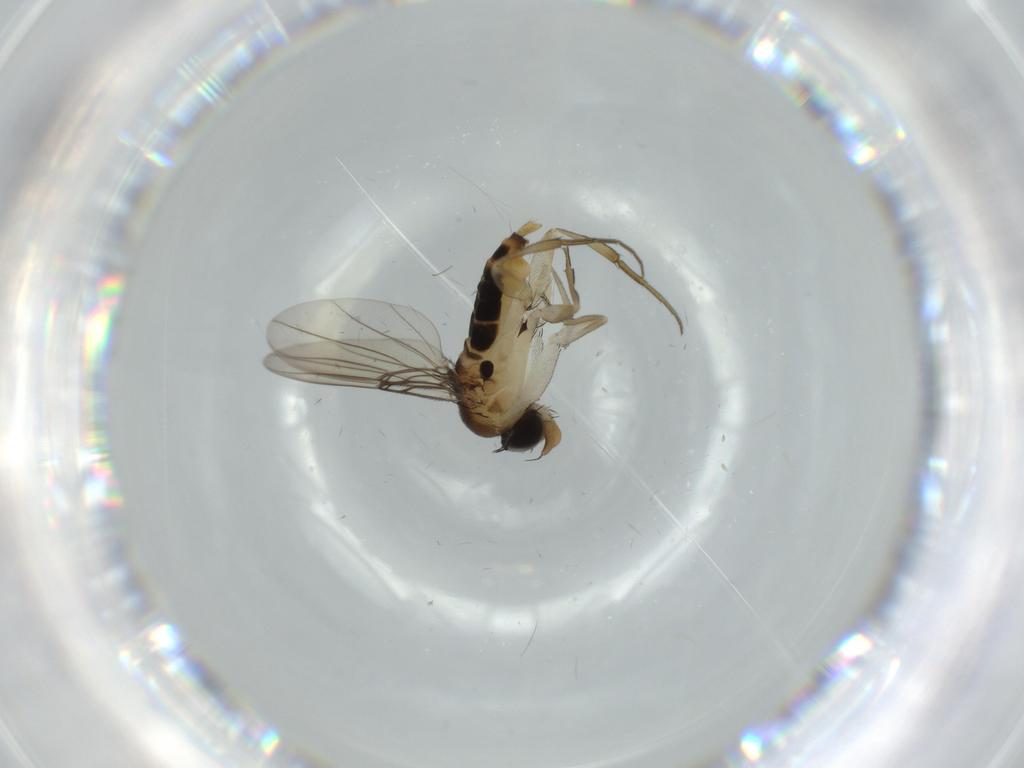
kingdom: Animalia
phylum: Arthropoda
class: Insecta
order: Diptera
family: Phoridae
